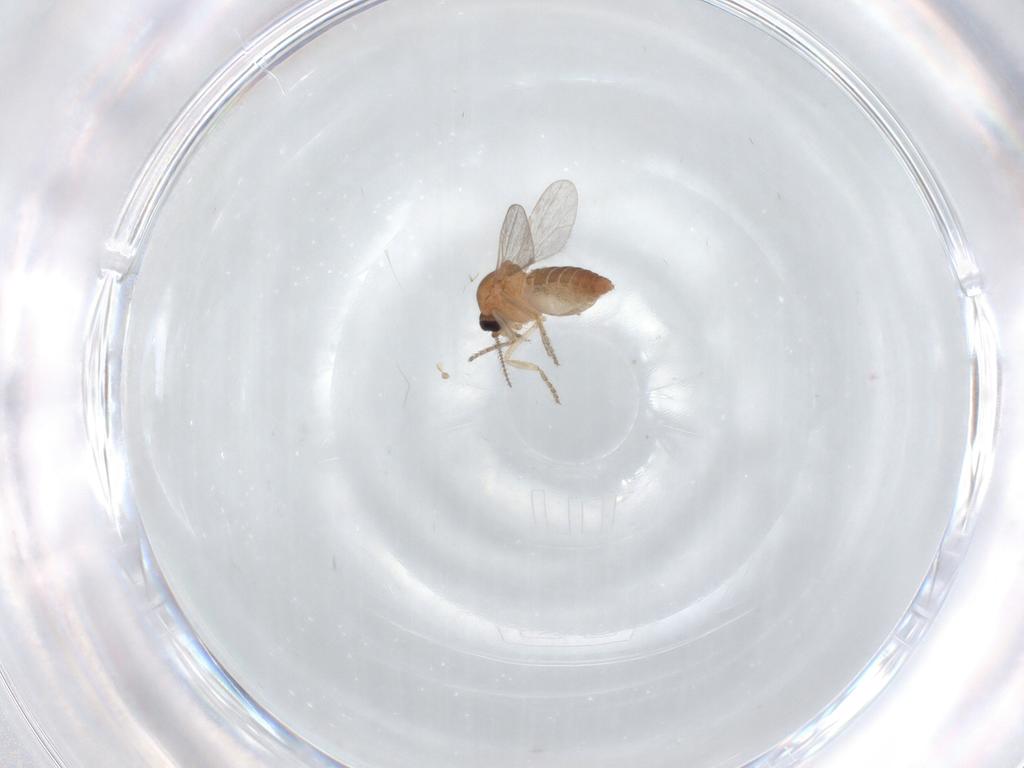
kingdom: Animalia
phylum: Arthropoda
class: Insecta
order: Diptera
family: Ceratopogonidae
